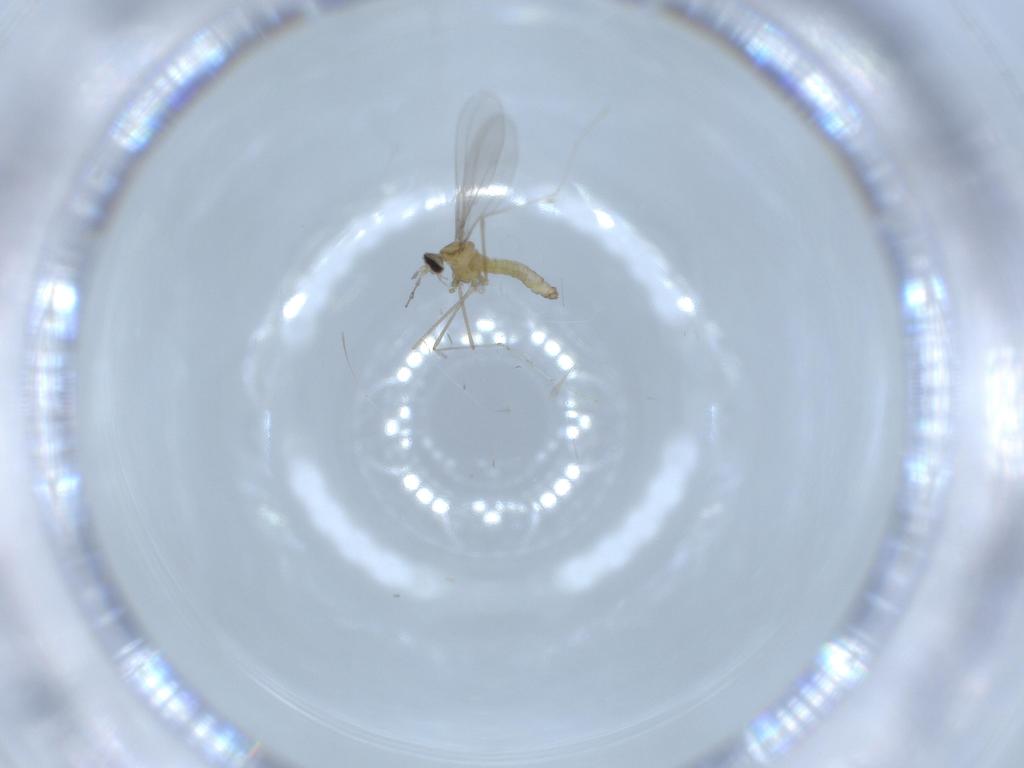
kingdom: Animalia
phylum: Arthropoda
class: Insecta
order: Diptera
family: Cecidomyiidae
